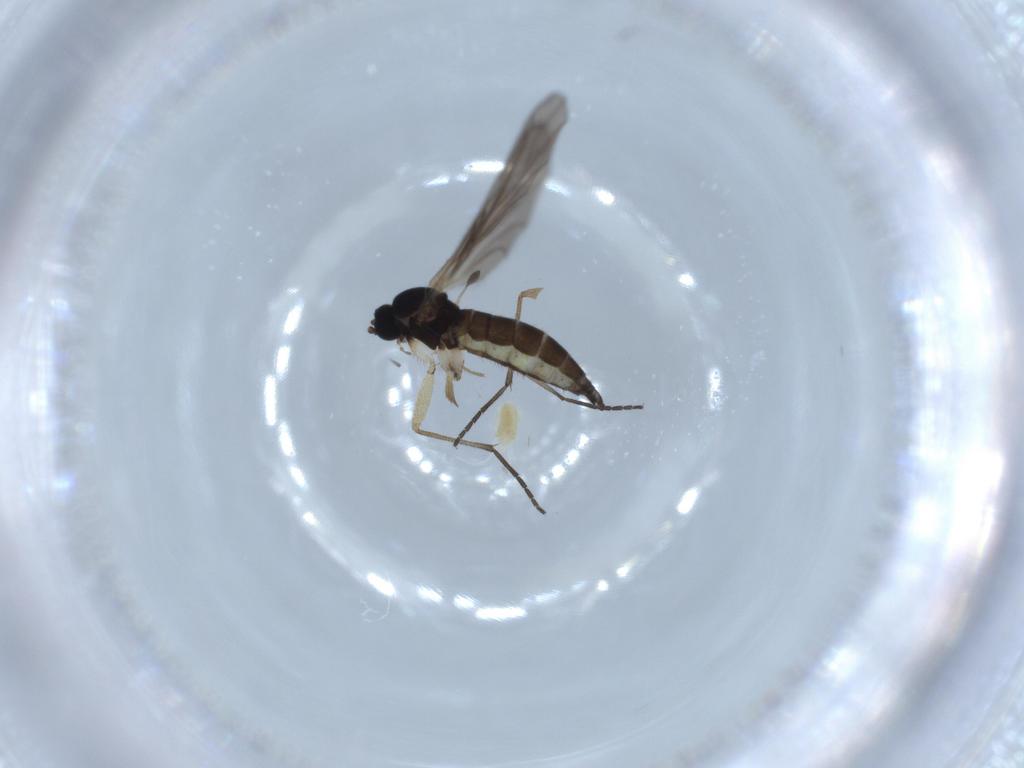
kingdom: Animalia
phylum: Arthropoda
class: Insecta
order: Diptera
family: Sciaridae
